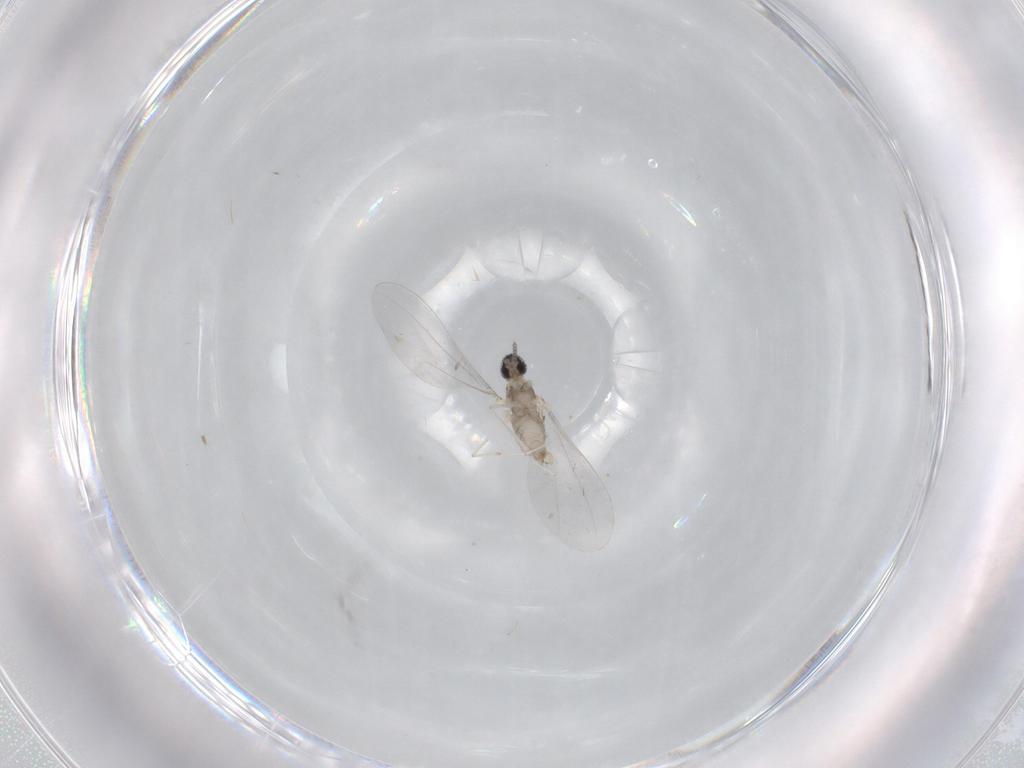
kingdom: Animalia
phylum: Arthropoda
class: Insecta
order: Diptera
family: Cecidomyiidae
